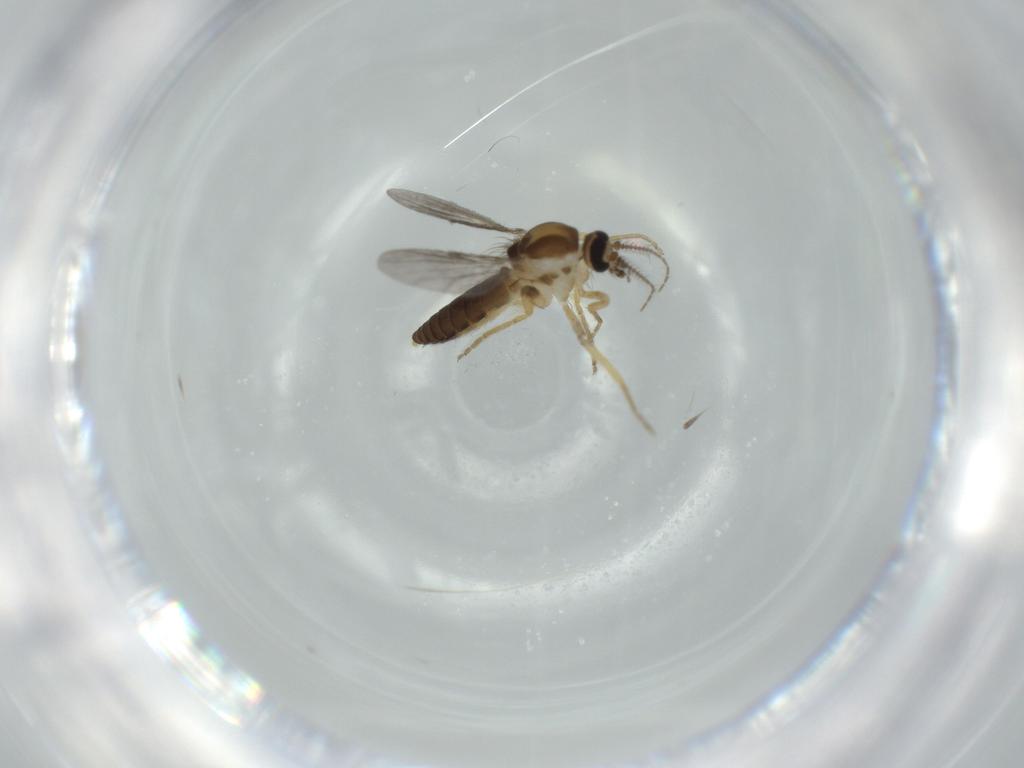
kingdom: Animalia
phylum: Arthropoda
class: Insecta
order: Diptera
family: Ceratopogonidae
